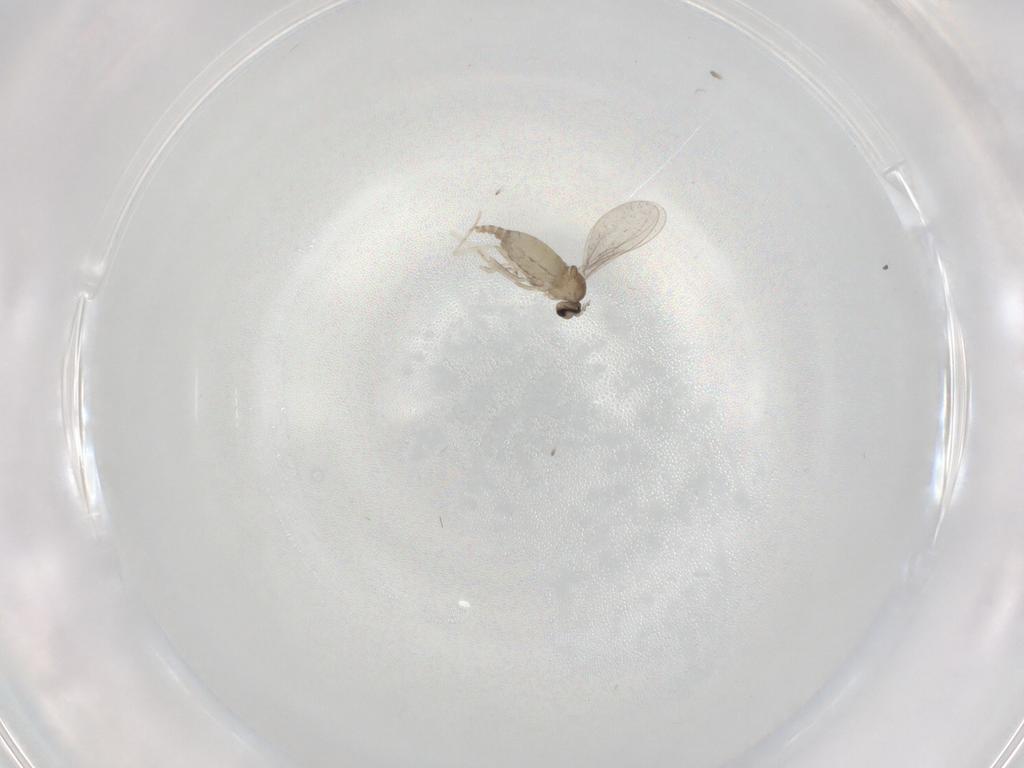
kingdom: Animalia
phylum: Arthropoda
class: Insecta
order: Diptera
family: Cecidomyiidae
